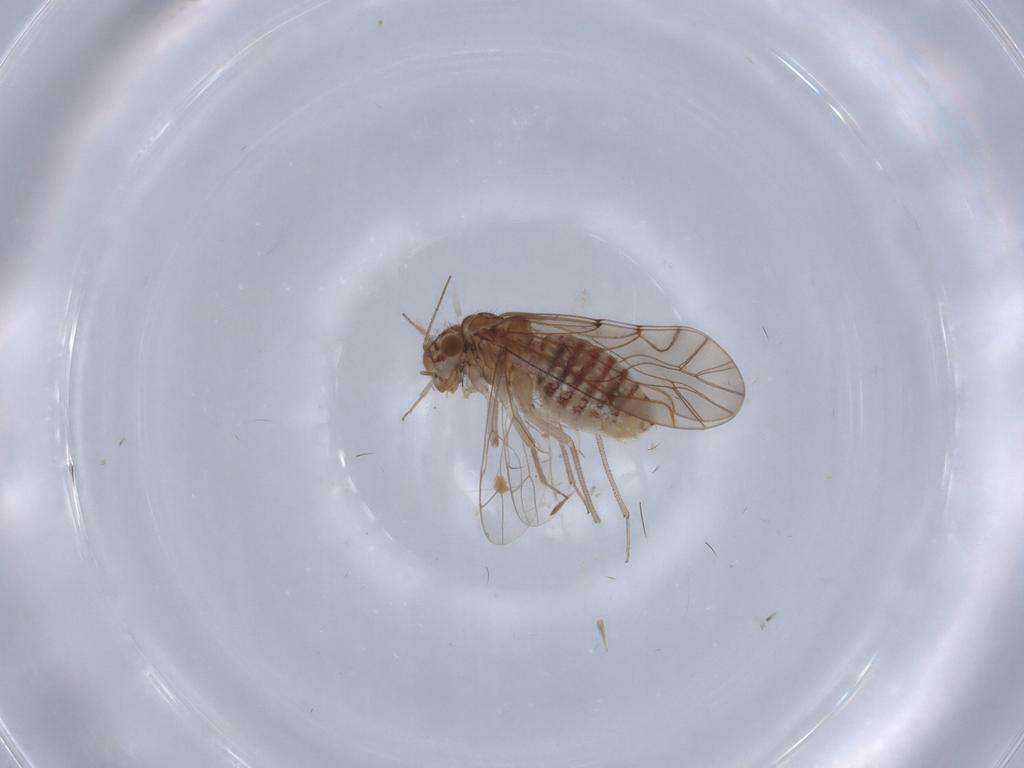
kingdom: Animalia
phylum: Arthropoda
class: Insecta
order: Psocodea
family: Lachesillidae
